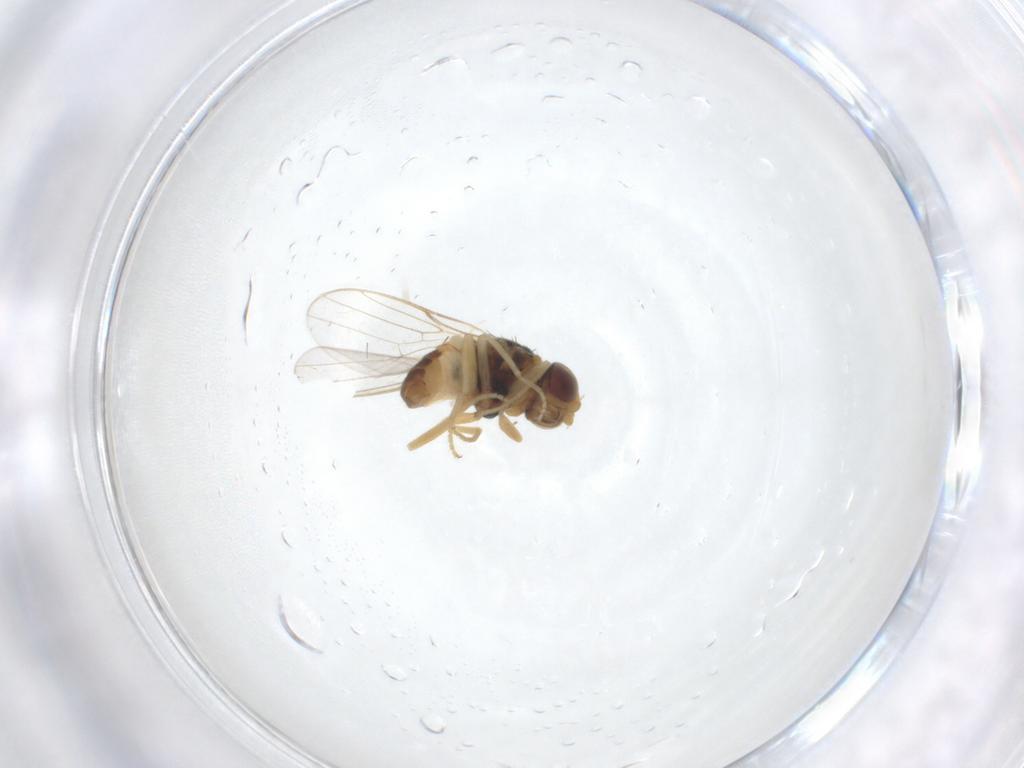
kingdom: Animalia
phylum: Arthropoda
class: Insecta
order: Diptera
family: Chloropidae
